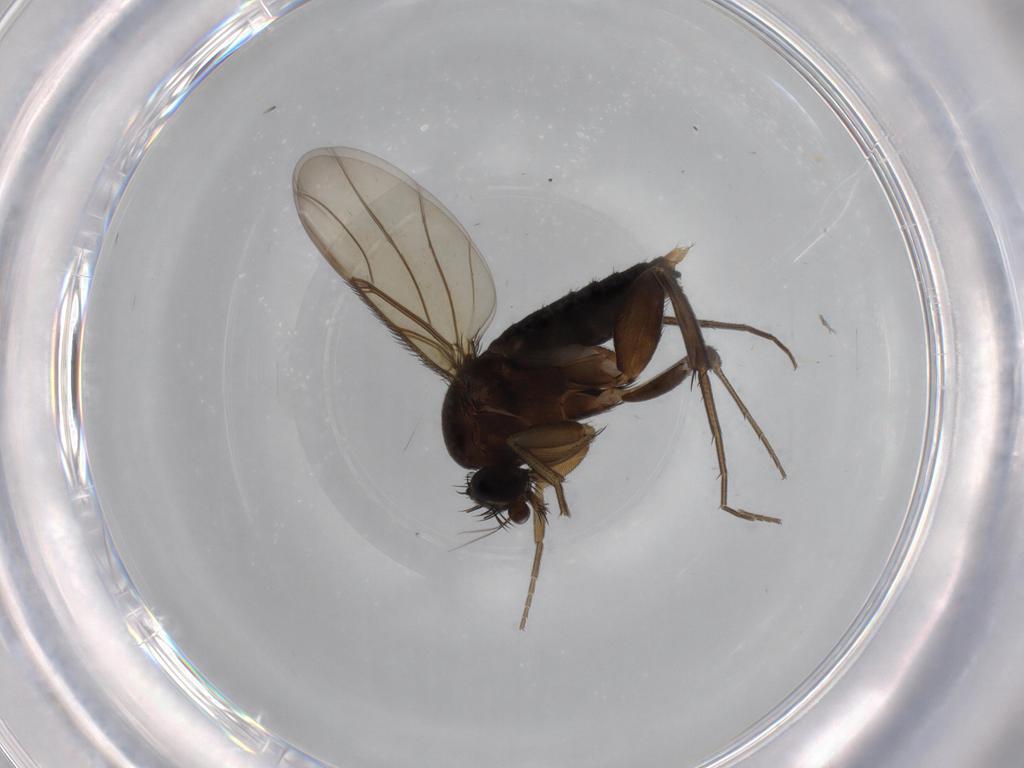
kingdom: Animalia
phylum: Arthropoda
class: Insecta
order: Diptera
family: Phoridae
